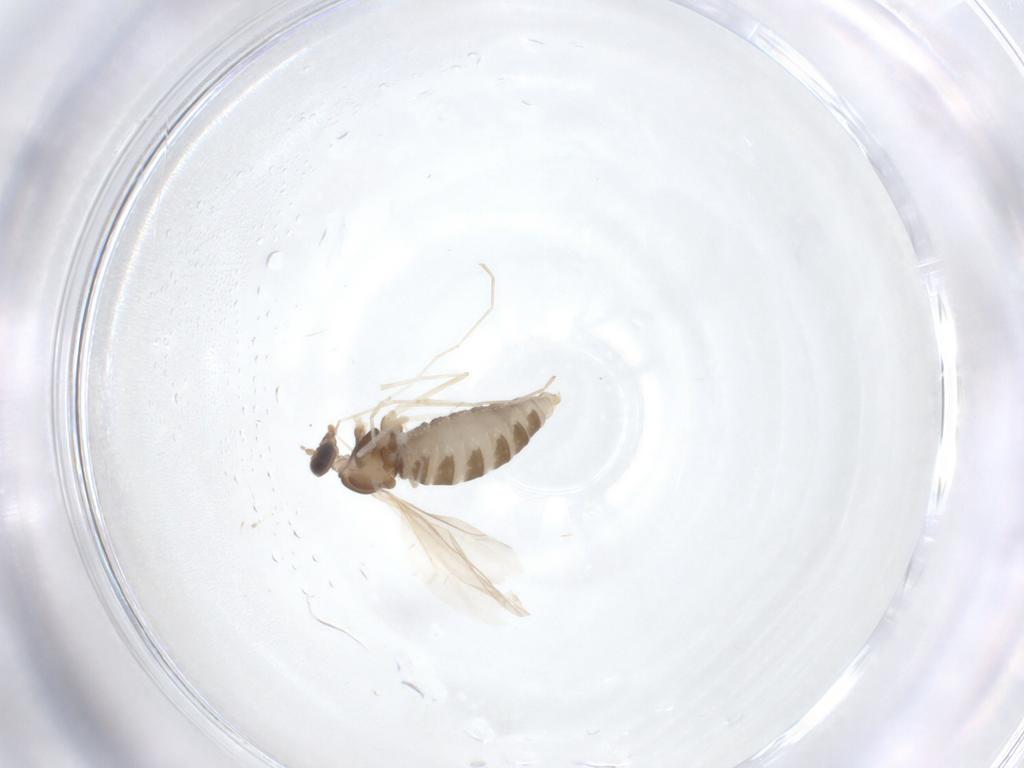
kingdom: Animalia
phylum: Arthropoda
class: Insecta
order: Diptera
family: Cecidomyiidae
